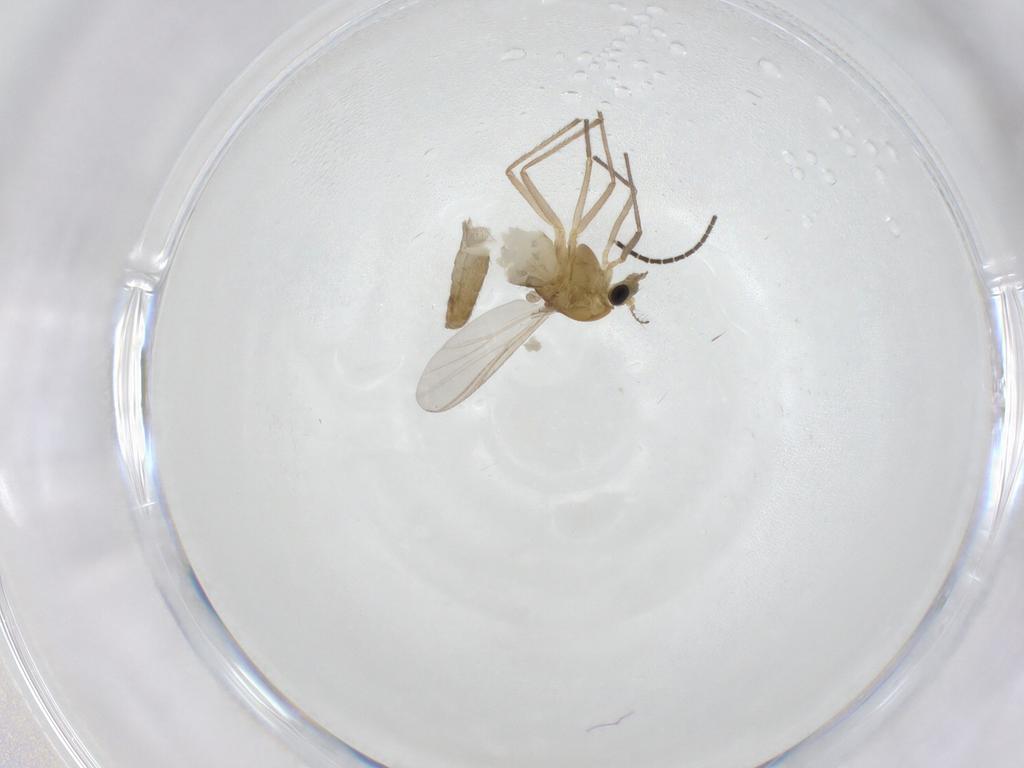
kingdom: Animalia
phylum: Arthropoda
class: Insecta
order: Diptera
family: Chironomidae
